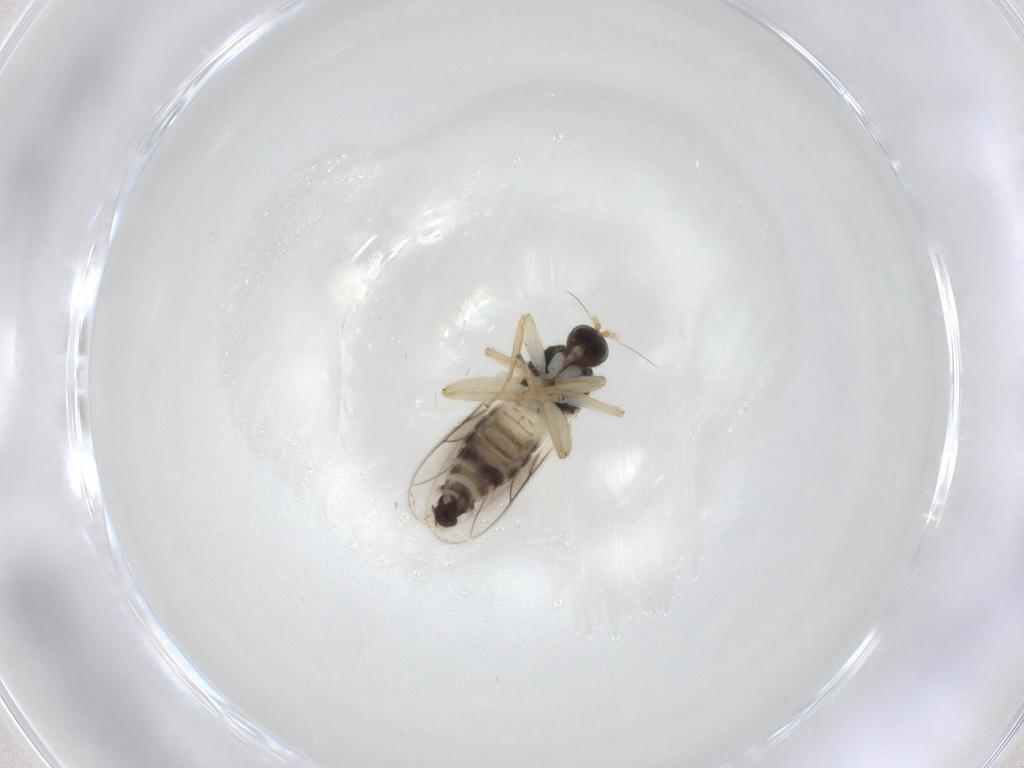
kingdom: Animalia
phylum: Arthropoda
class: Insecta
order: Diptera
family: Hybotidae
